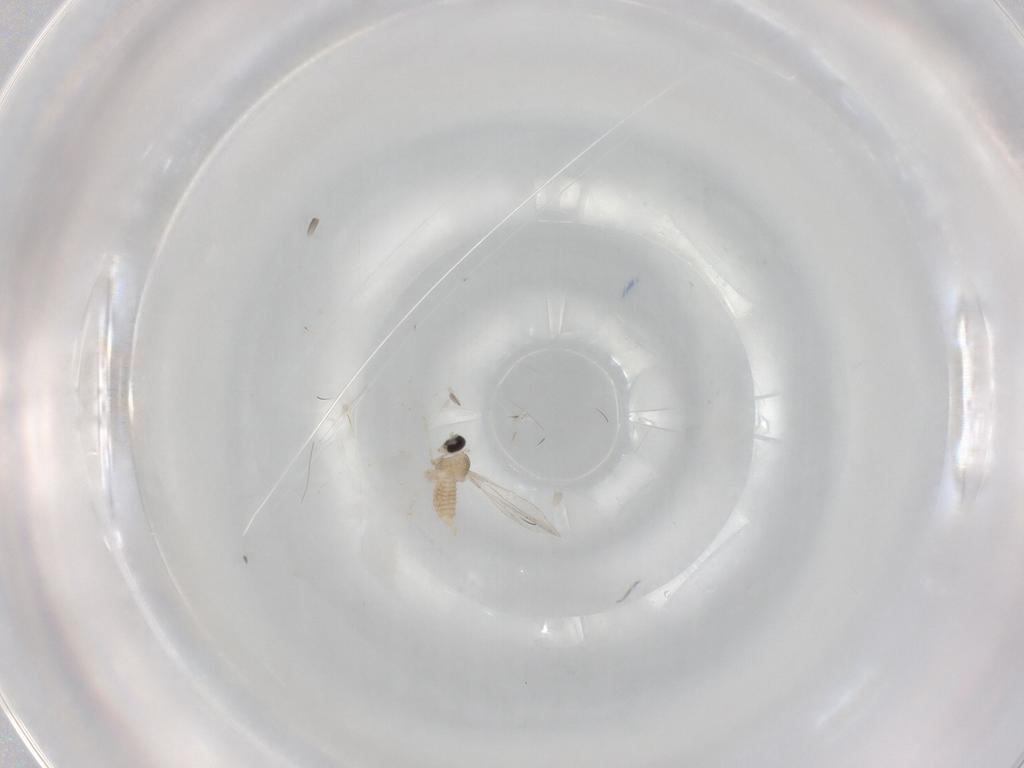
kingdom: Animalia
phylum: Arthropoda
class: Insecta
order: Diptera
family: Cecidomyiidae
